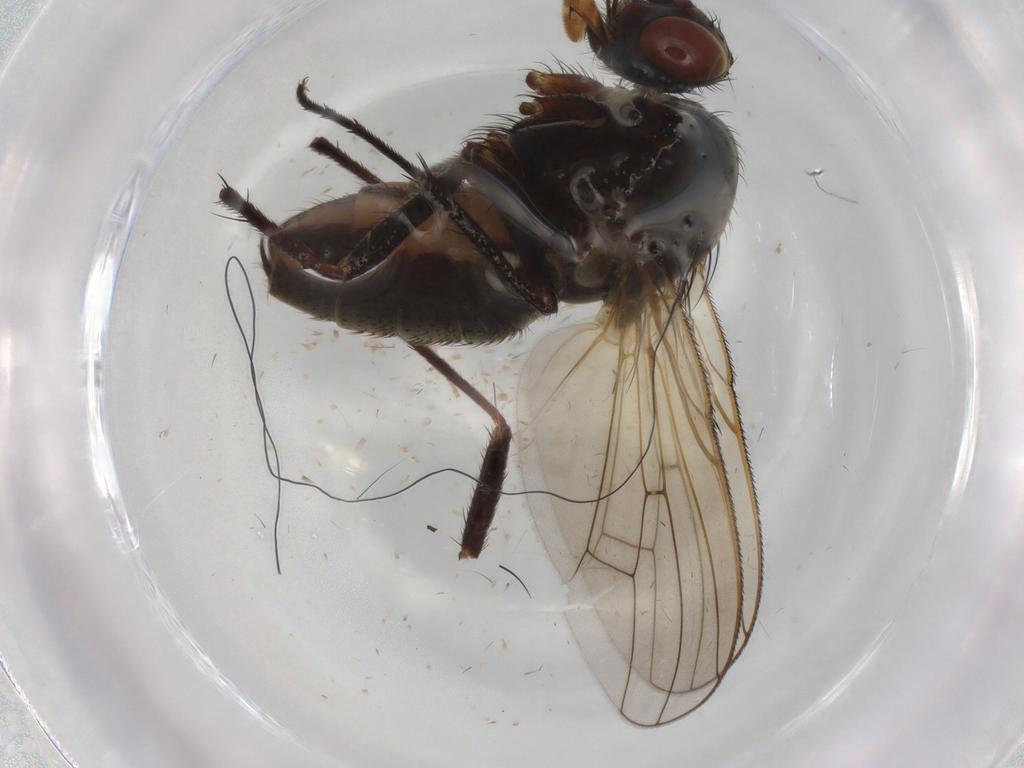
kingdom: Animalia
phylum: Arthropoda
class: Insecta
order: Diptera
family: Anthomyiidae
